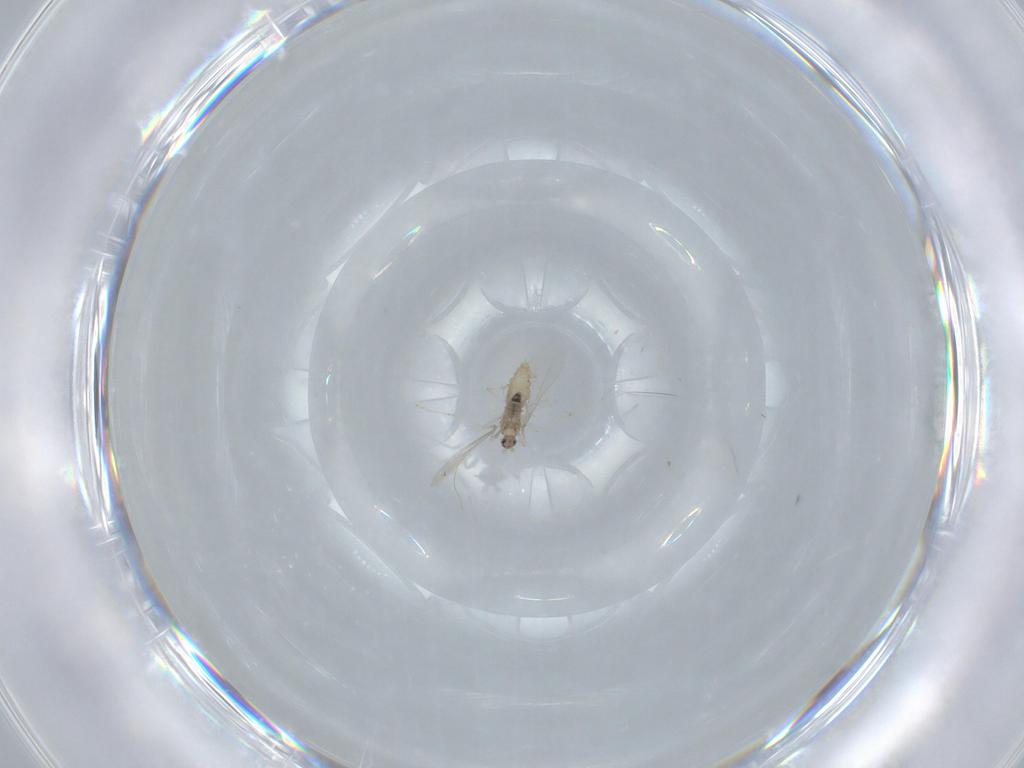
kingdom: Animalia
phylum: Arthropoda
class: Insecta
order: Diptera
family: Cecidomyiidae
